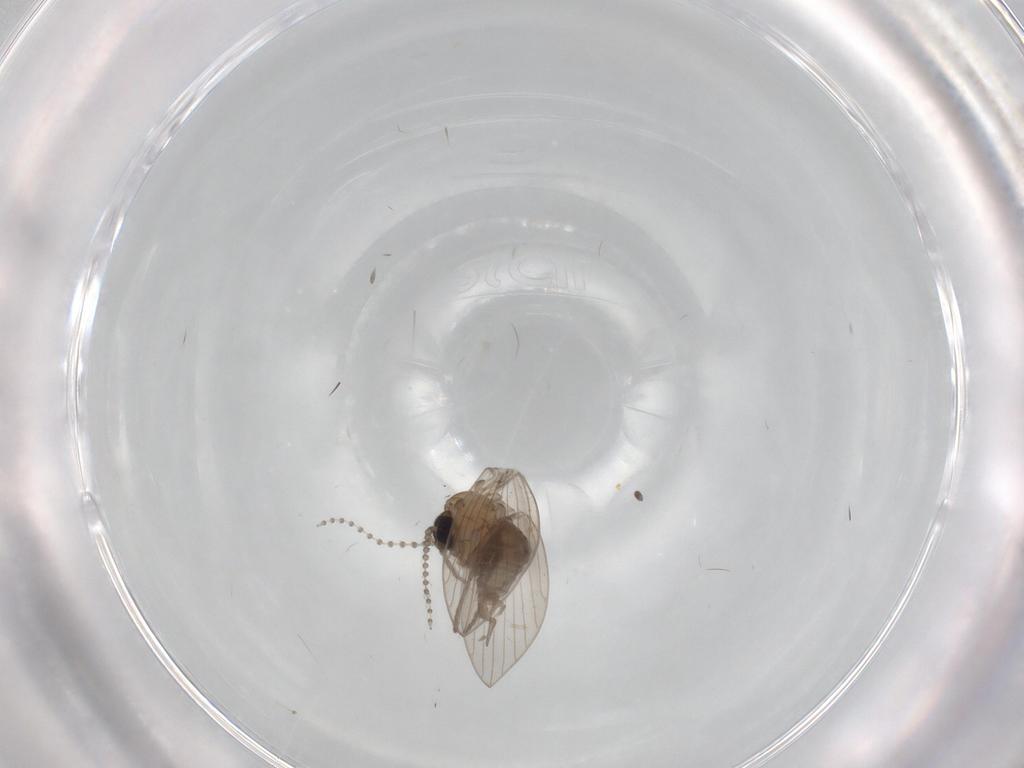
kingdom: Animalia
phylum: Arthropoda
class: Insecta
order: Diptera
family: Psychodidae
